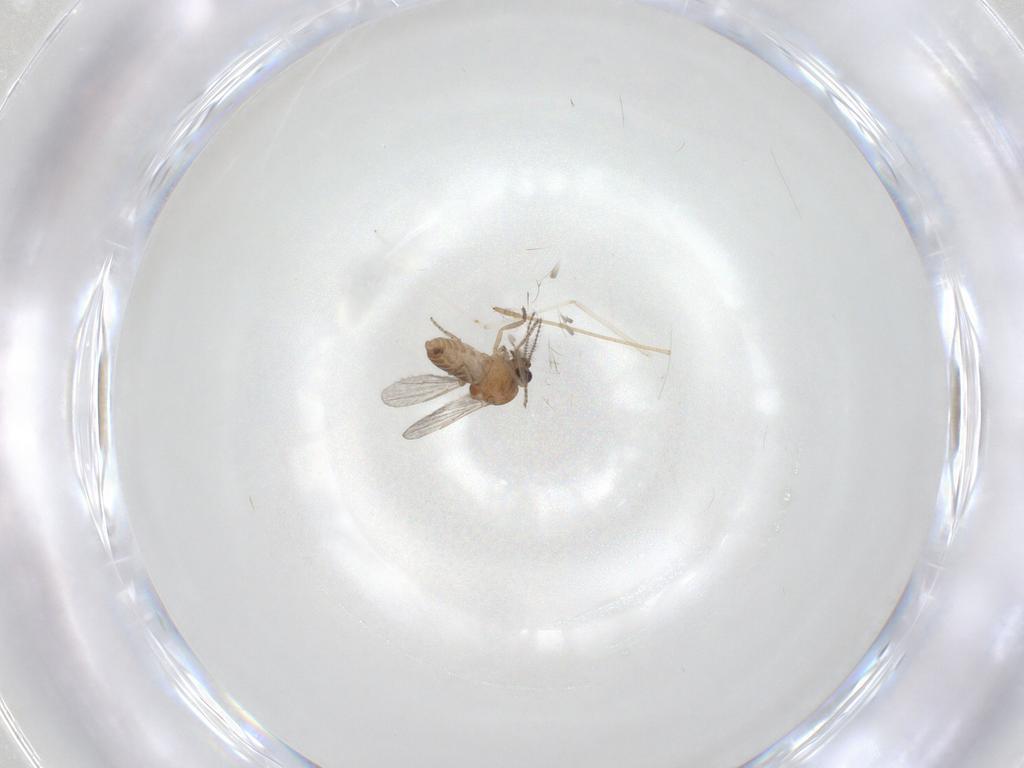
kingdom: Animalia
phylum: Arthropoda
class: Insecta
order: Diptera
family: Ceratopogonidae
